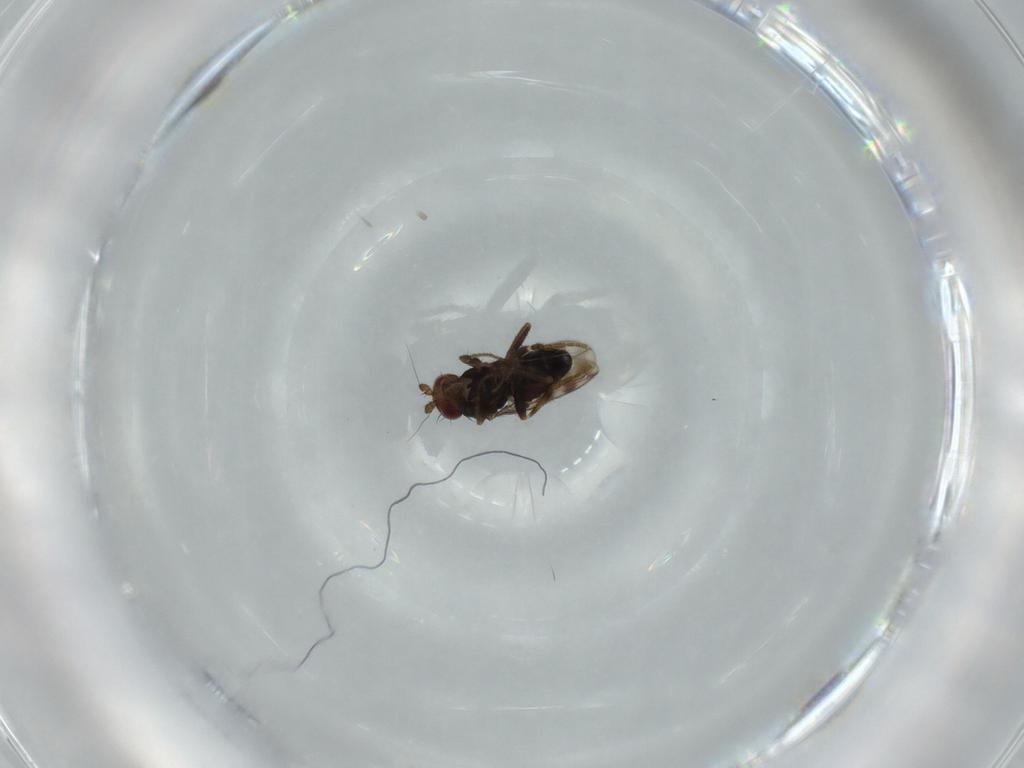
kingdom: Animalia
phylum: Arthropoda
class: Insecta
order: Diptera
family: Sphaeroceridae
